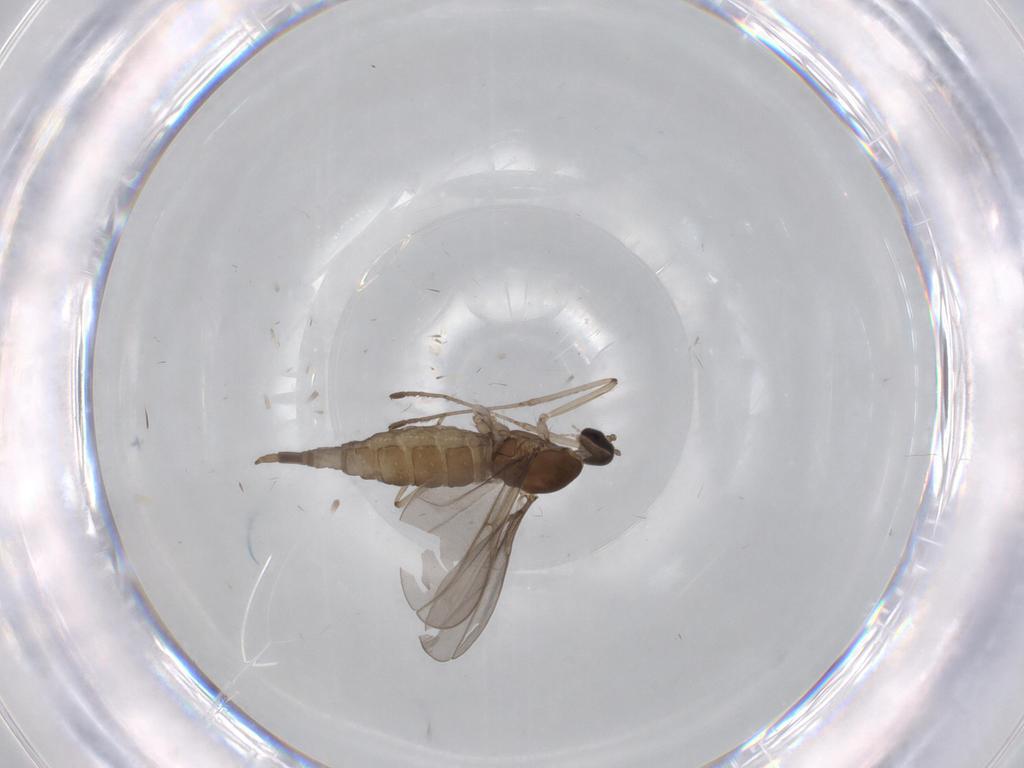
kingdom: Animalia
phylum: Arthropoda
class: Insecta
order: Diptera
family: Cecidomyiidae
